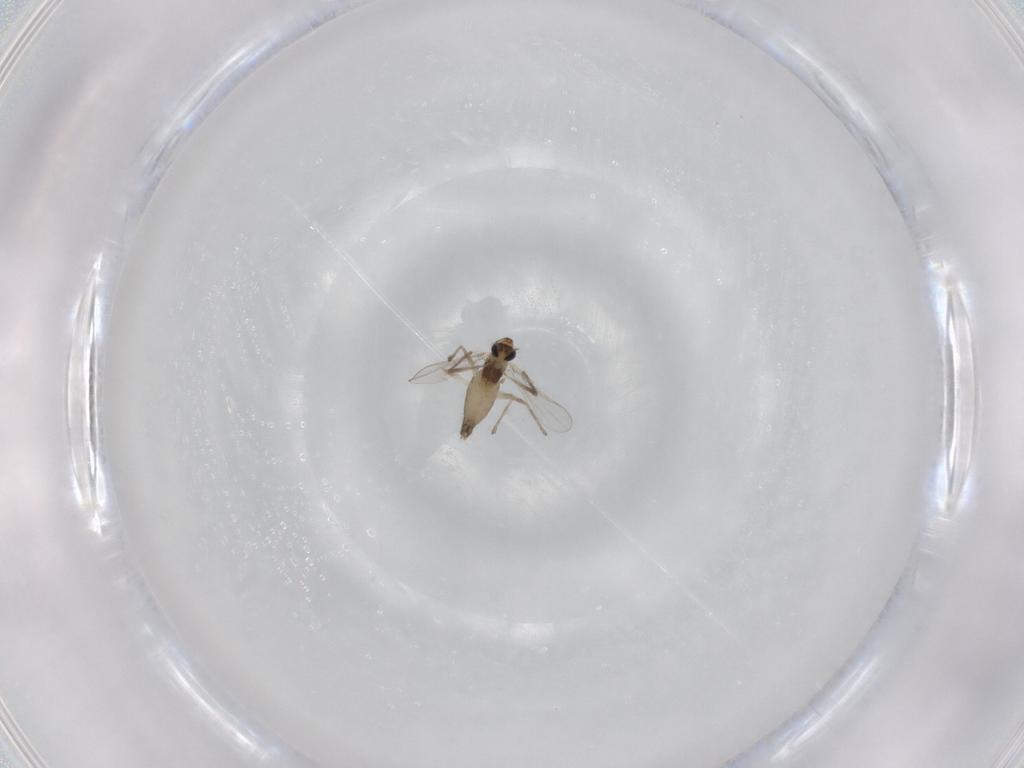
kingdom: Animalia
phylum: Arthropoda
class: Insecta
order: Diptera
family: Chironomidae
